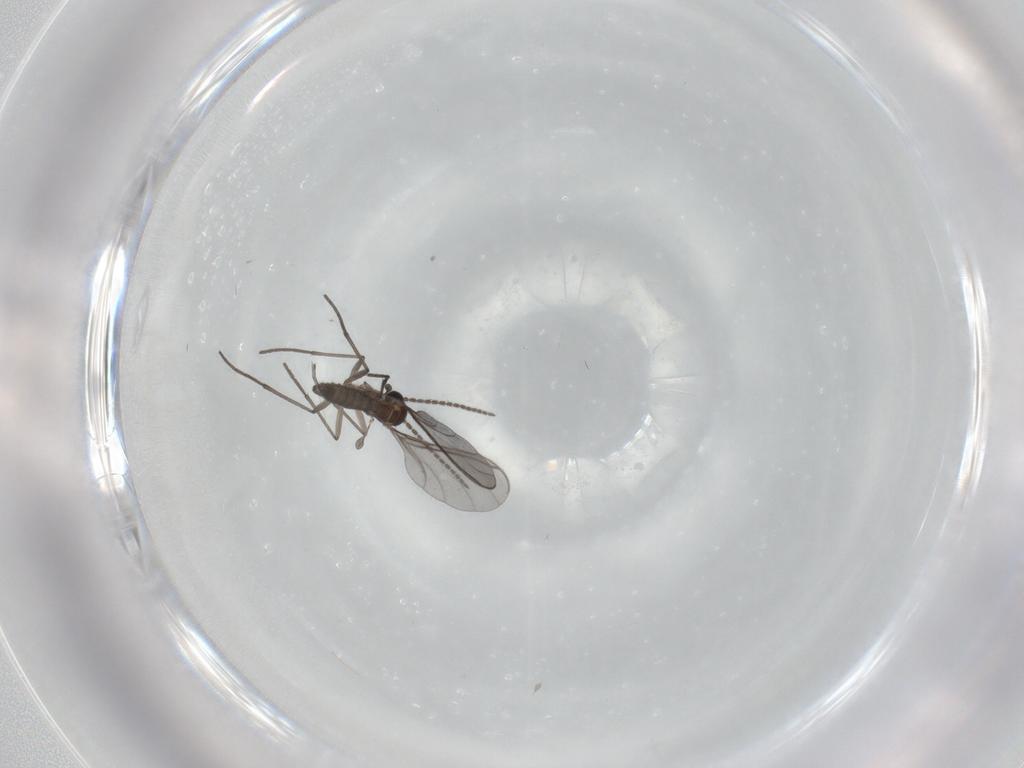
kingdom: Animalia
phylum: Arthropoda
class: Insecta
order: Diptera
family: Sciaridae
